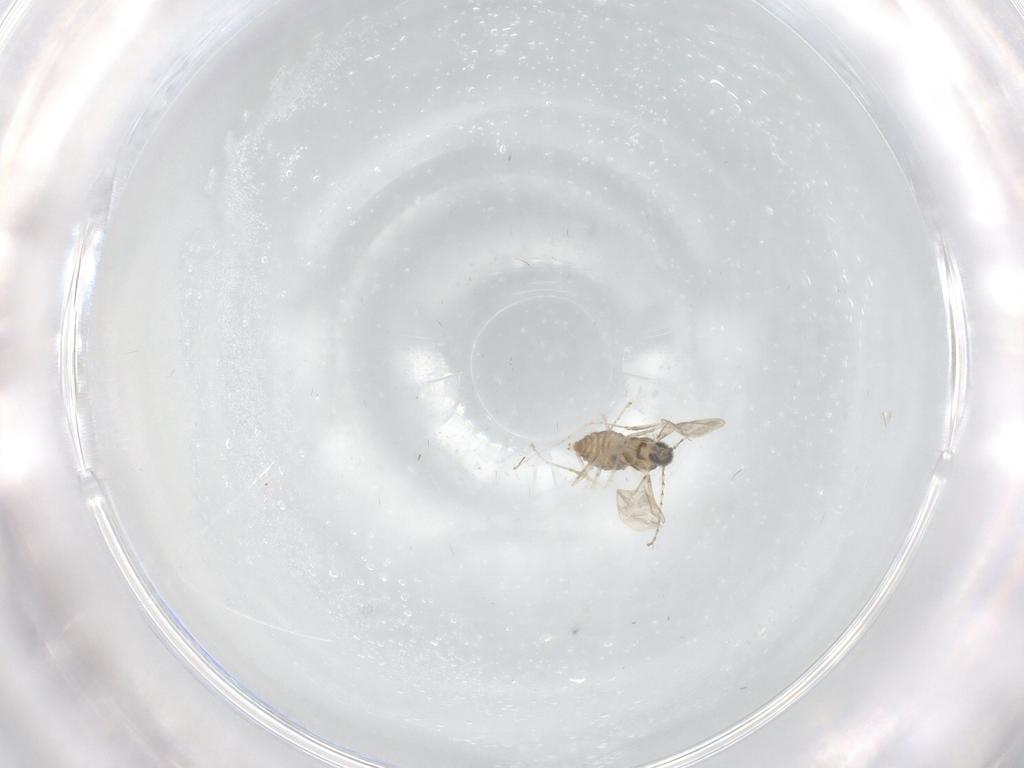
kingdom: Animalia
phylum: Arthropoda
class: Insecta
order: Diptera
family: Cecidomyiidae
